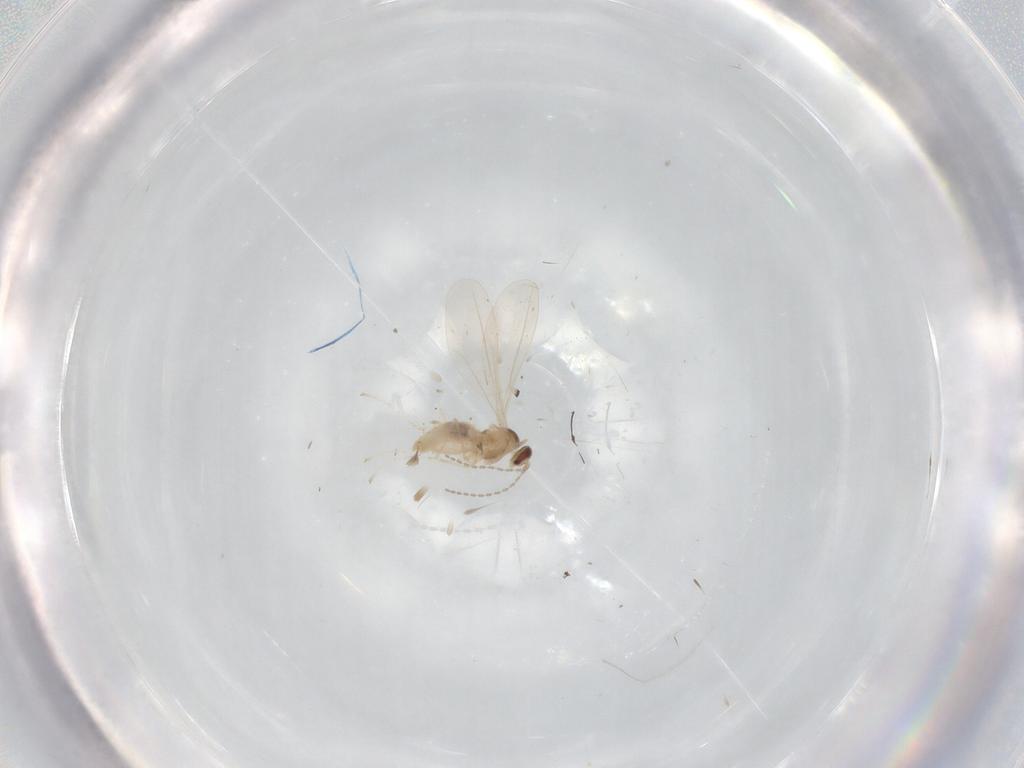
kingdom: Animalia
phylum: Arthropoda
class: Insecta
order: Diptera
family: Cecidomyiidae
